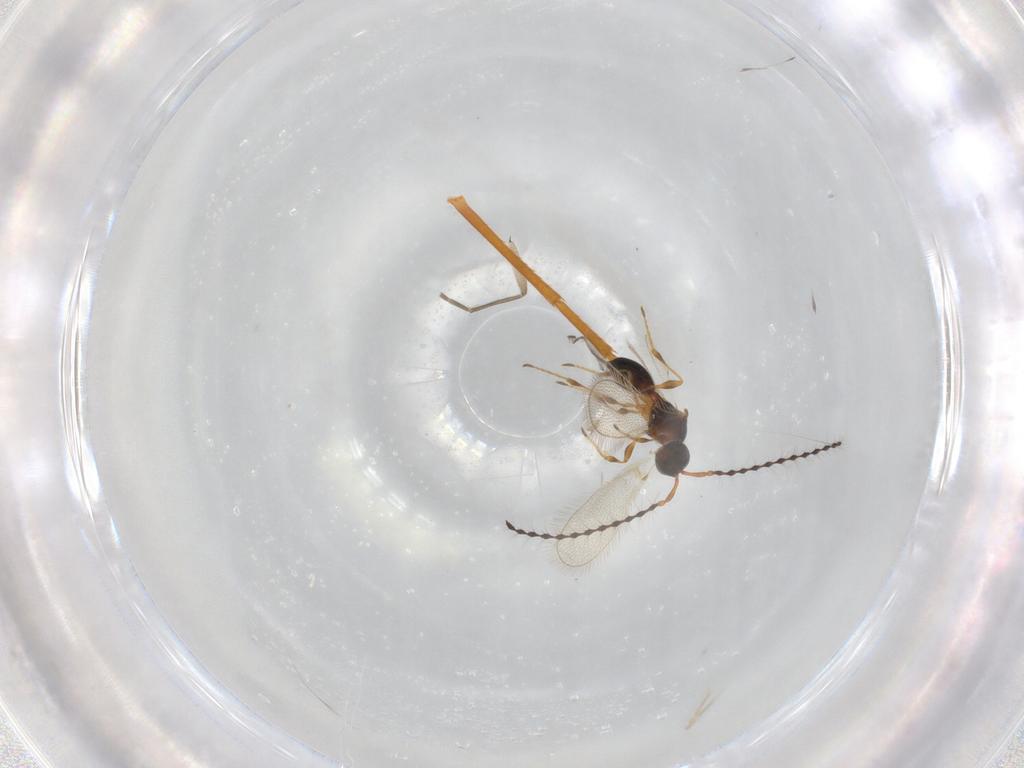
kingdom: Animalia
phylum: Arthropoda
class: Insecta
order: Hymenoptera
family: Diapriidae
